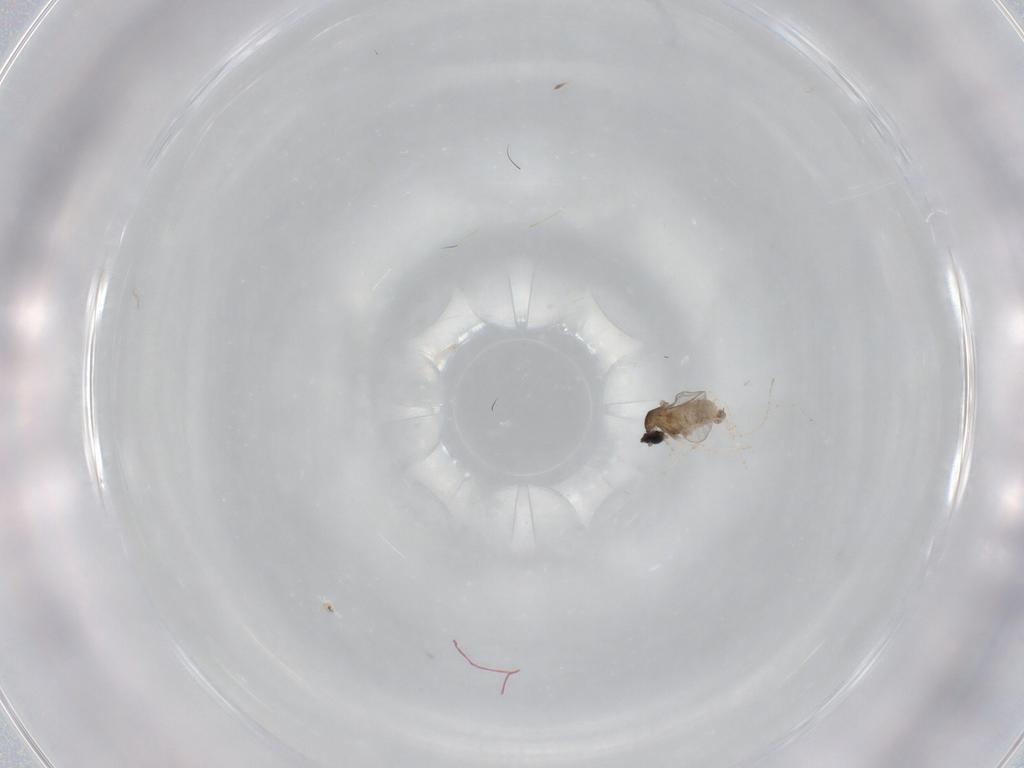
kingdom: Animalia
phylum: Arthropoda
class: Insecta
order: Diptera
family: Cecidomyiidae
